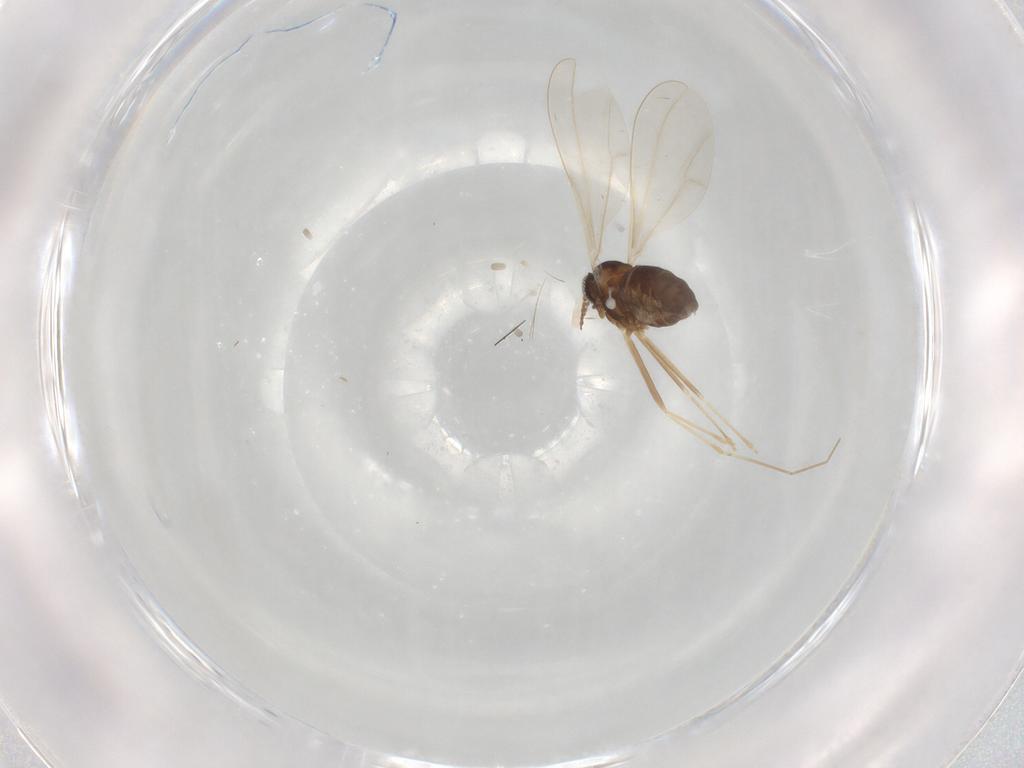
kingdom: Animalia
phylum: Arthropoda
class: Insecta
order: Diptera
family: Cecidomyiidae
